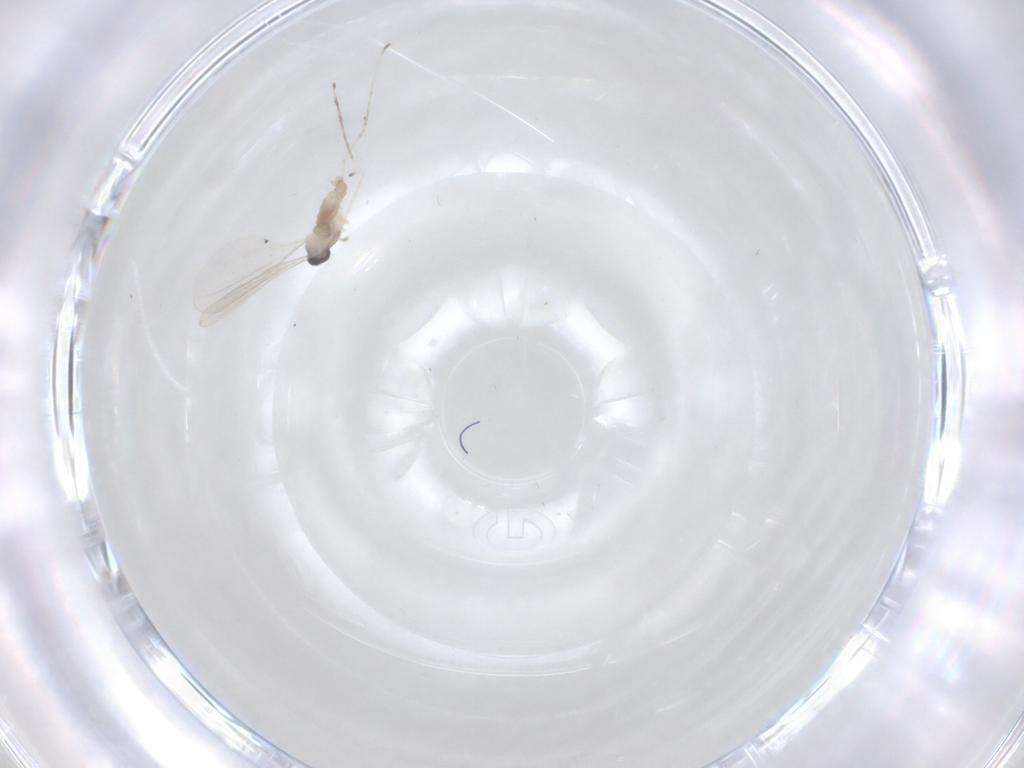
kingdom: Animalia
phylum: Arthropoda
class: Insecta
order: Diptera
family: Cecidomyiidae
